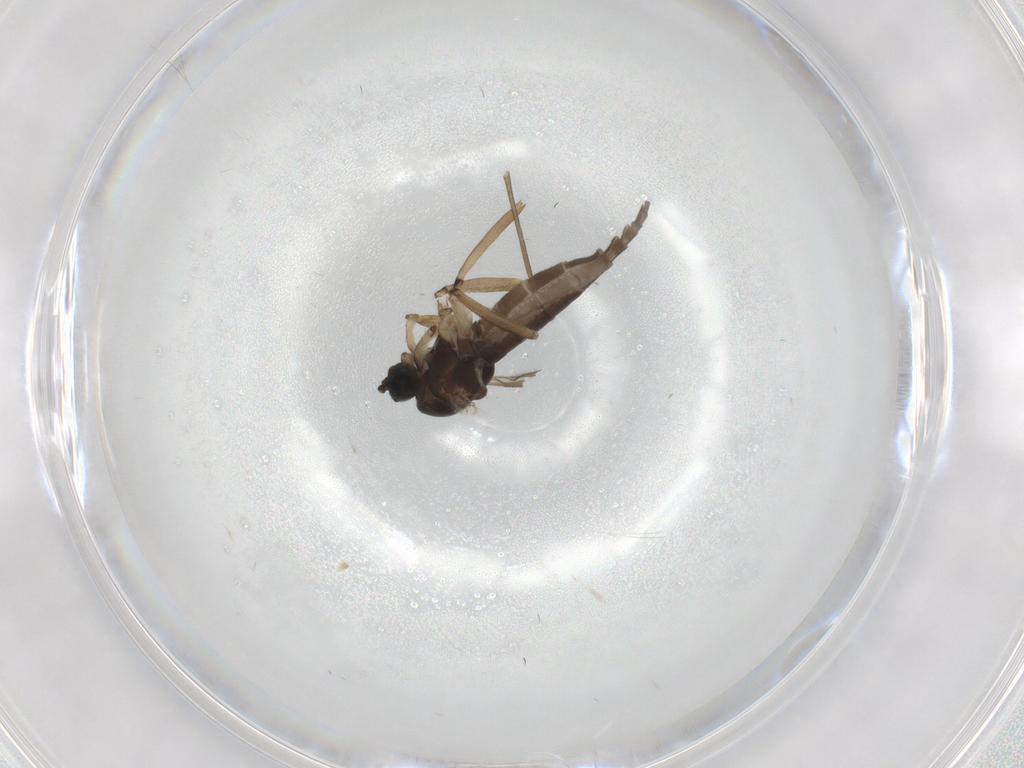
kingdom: Animalia
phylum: Arthropoda
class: Insecta
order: Diptera
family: Sciaridae
